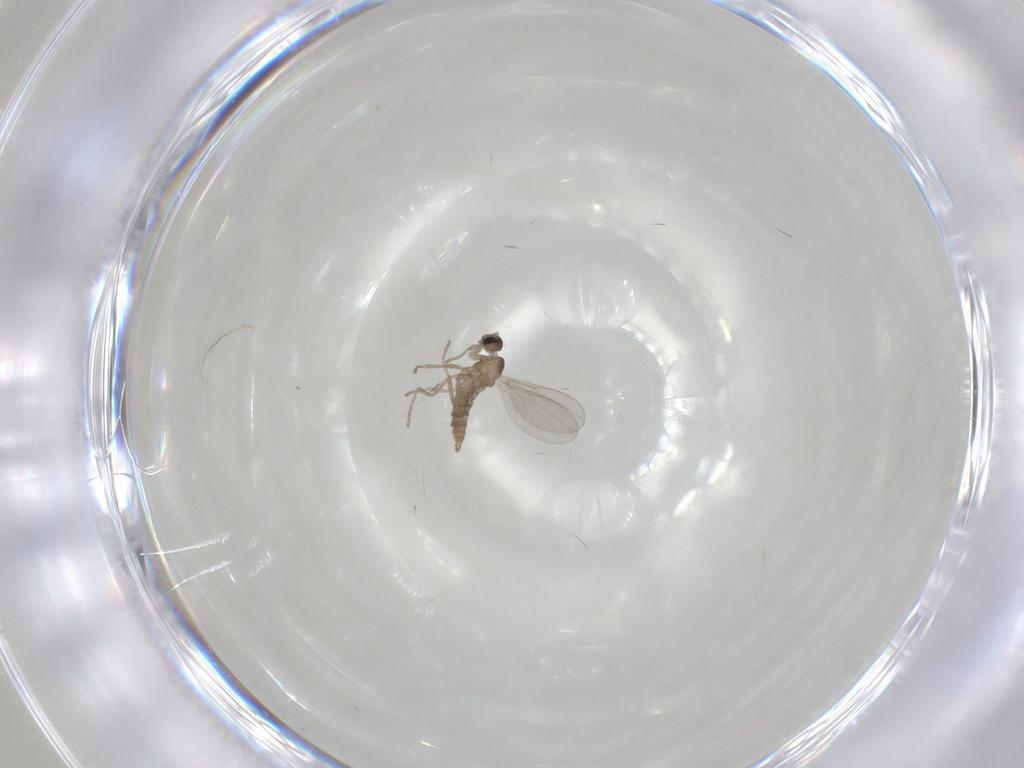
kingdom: Animalia
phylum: Arthropoda
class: Insecta
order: Diptera
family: Cecidomyiidae
